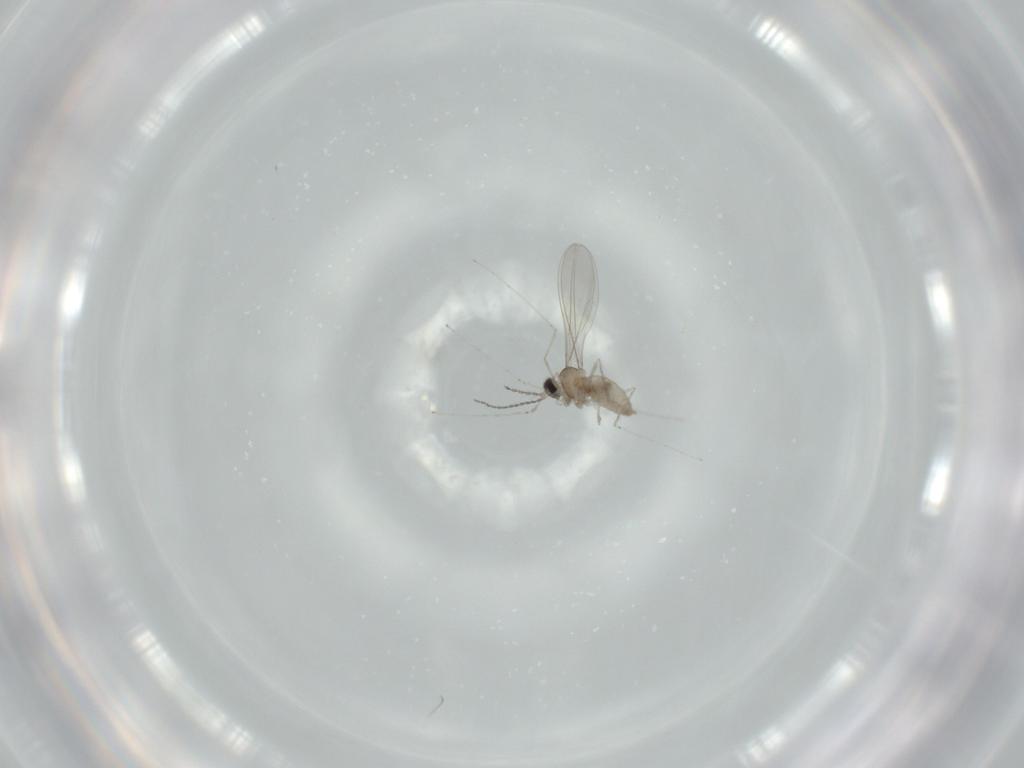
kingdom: Animalia
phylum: Arthropoda
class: Insecta
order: Diptera
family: Cecidomyiidae
